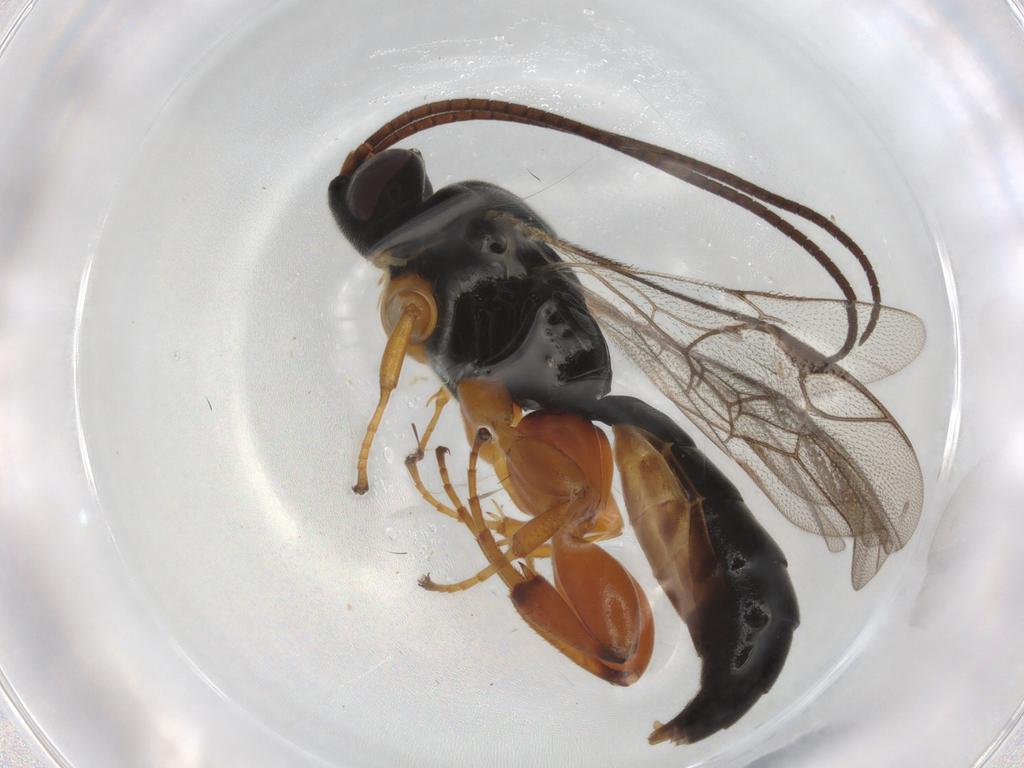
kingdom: Animalia
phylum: Arthropoda
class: Insecta
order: Hymenoptera
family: Ichneumonidae
